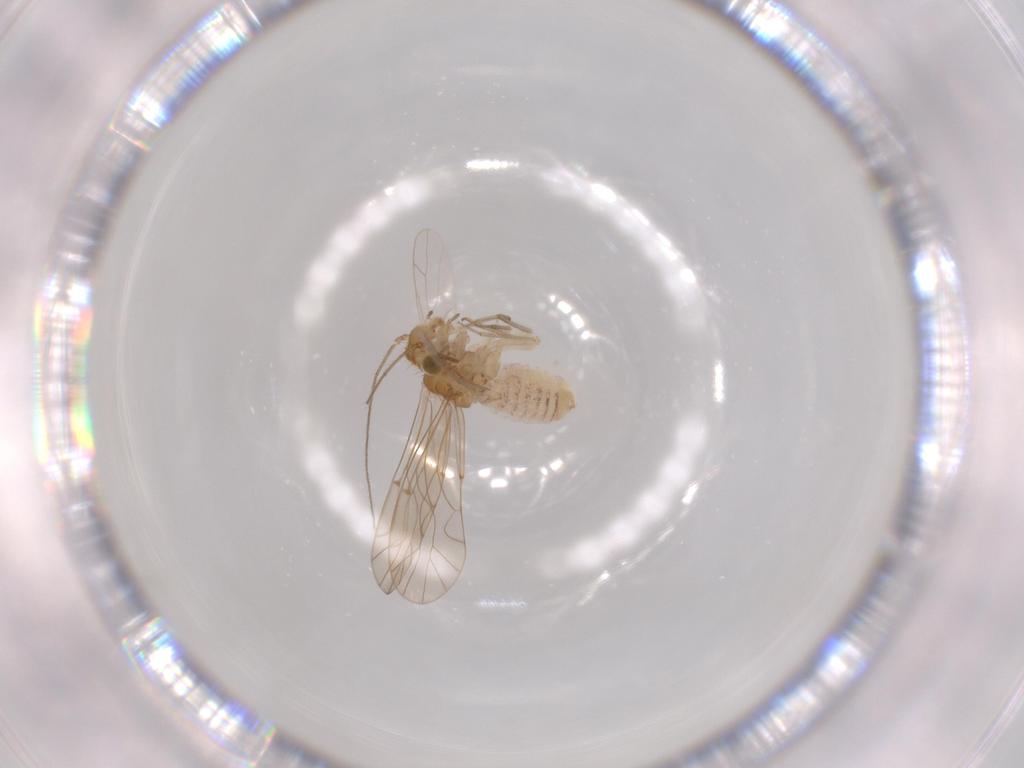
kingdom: Animalia
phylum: Arthropoda
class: Insecta
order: Psocodea
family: Lachesillidae
